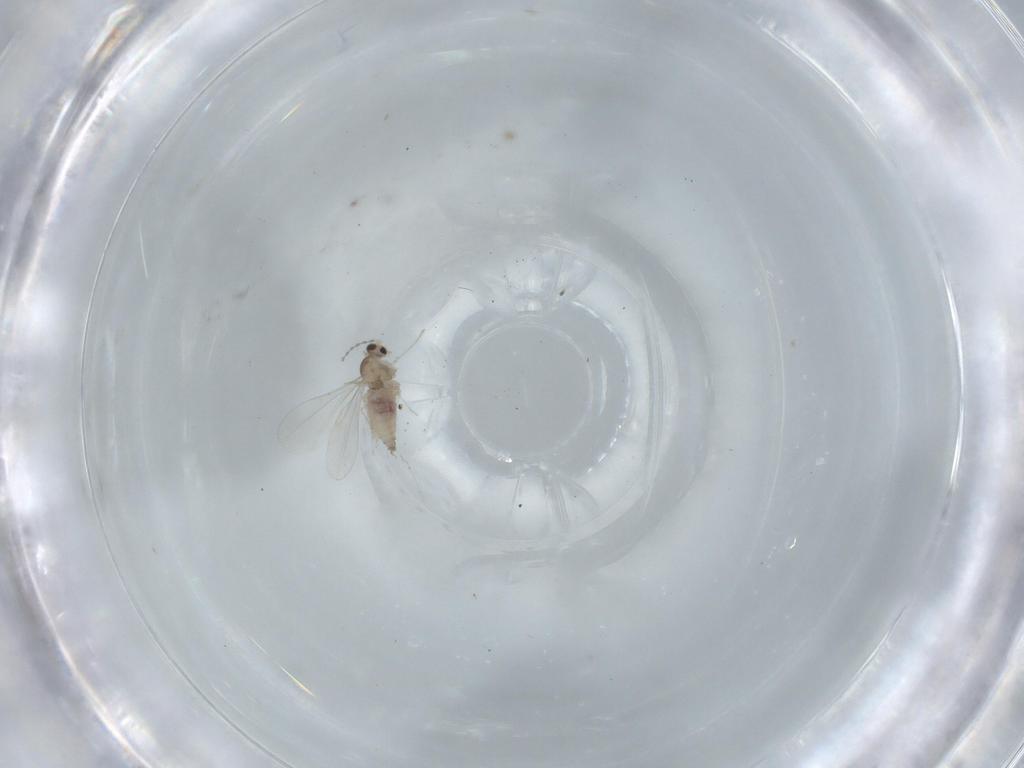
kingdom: Animalia
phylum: Arthropoda
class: Insecta
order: Diptera
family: Cecidomyiidae
